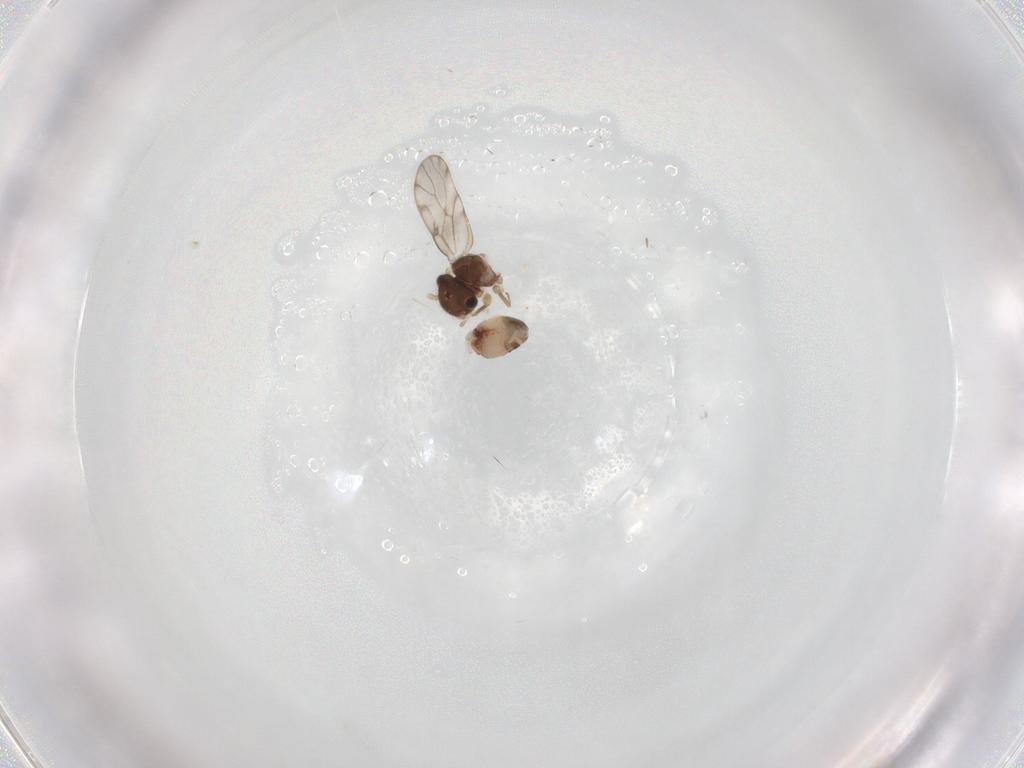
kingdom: Animalia
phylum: Arthropoda
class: Insecta
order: Psocodea
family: Peripsocidae
